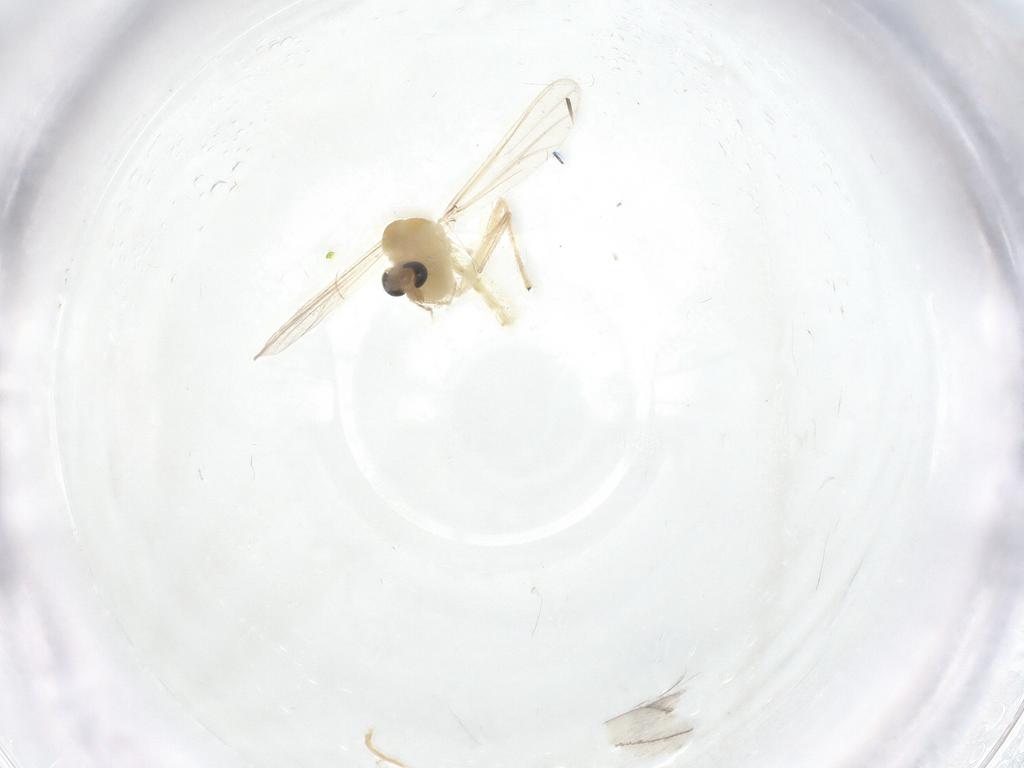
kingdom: Animalia
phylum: Arthropoda
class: Insecta
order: Diptera
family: Chironomidae
